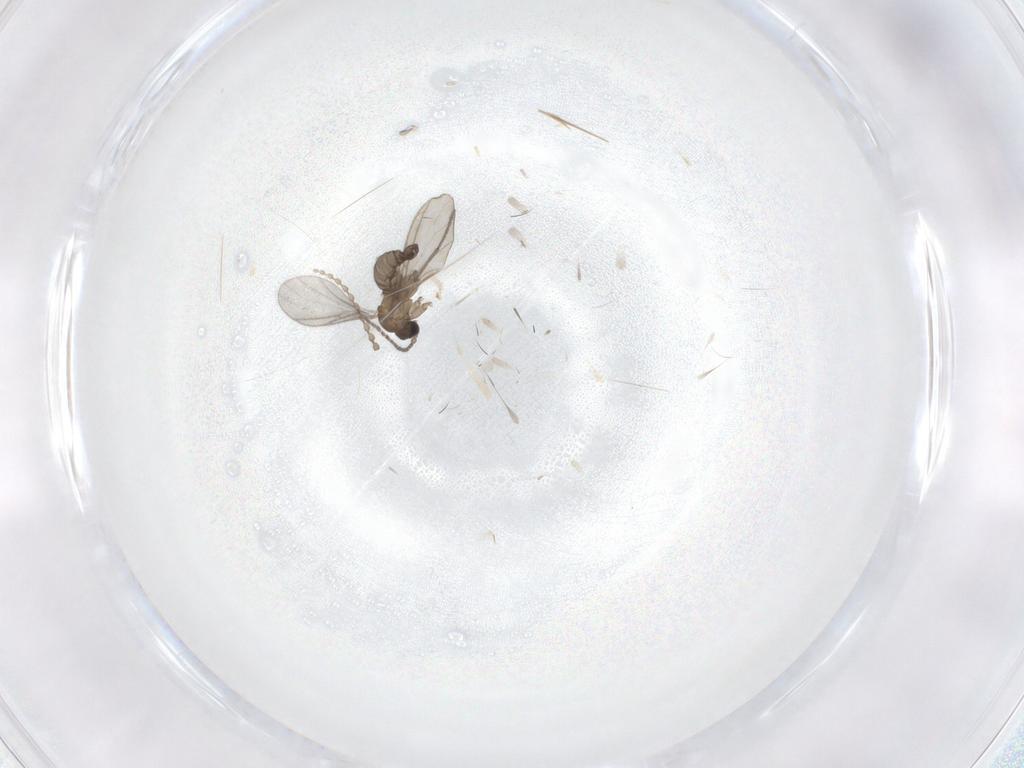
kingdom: Animalia
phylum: Arthropoda
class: Insecta
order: Diptera
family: Sciaridae
